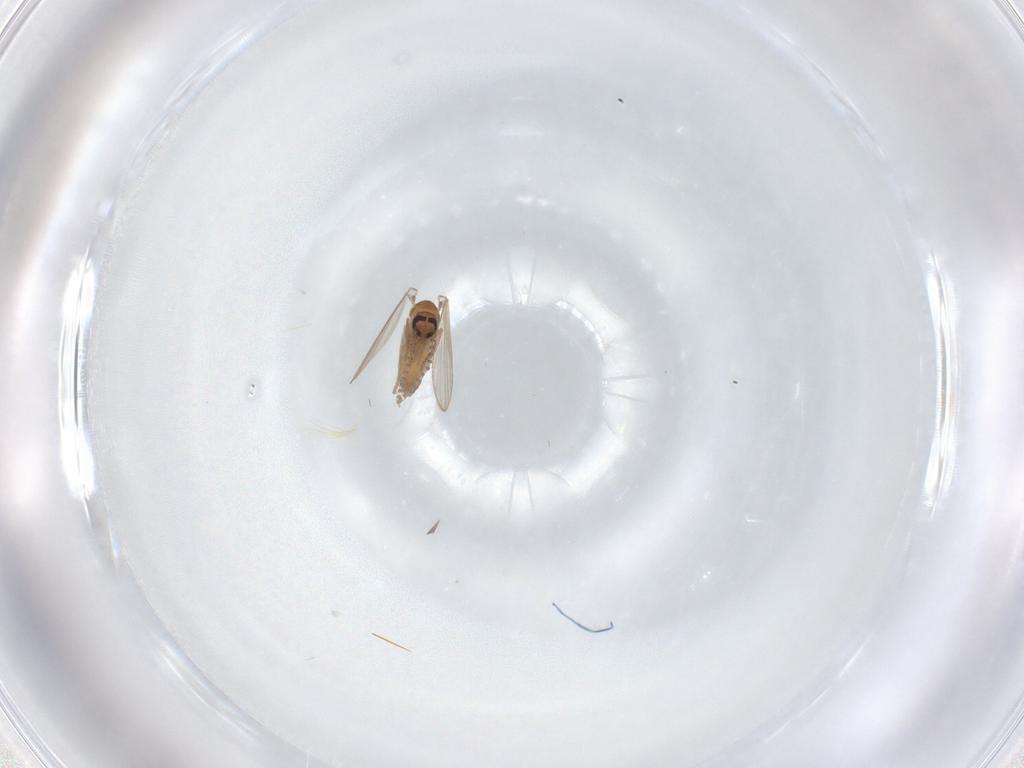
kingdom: Animalia
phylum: Arthropoda
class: Insecta
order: Diptera
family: Psychodidae
